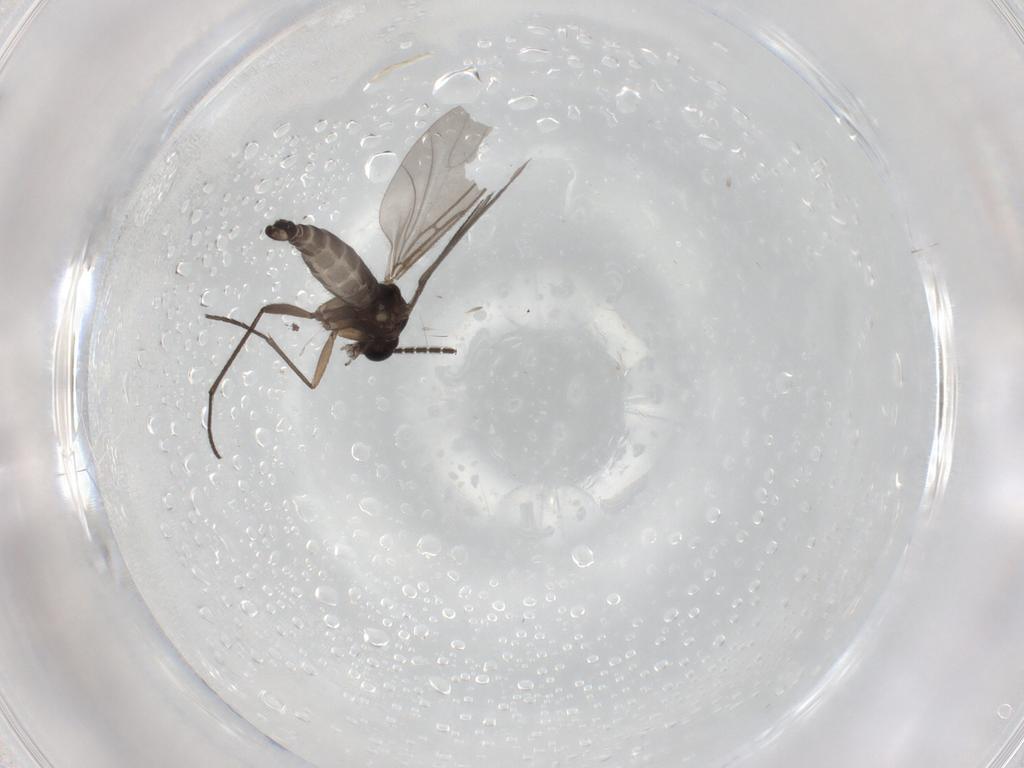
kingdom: Animalia
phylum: Arthropoda
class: Insecta
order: Diptera
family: Sciaridae
